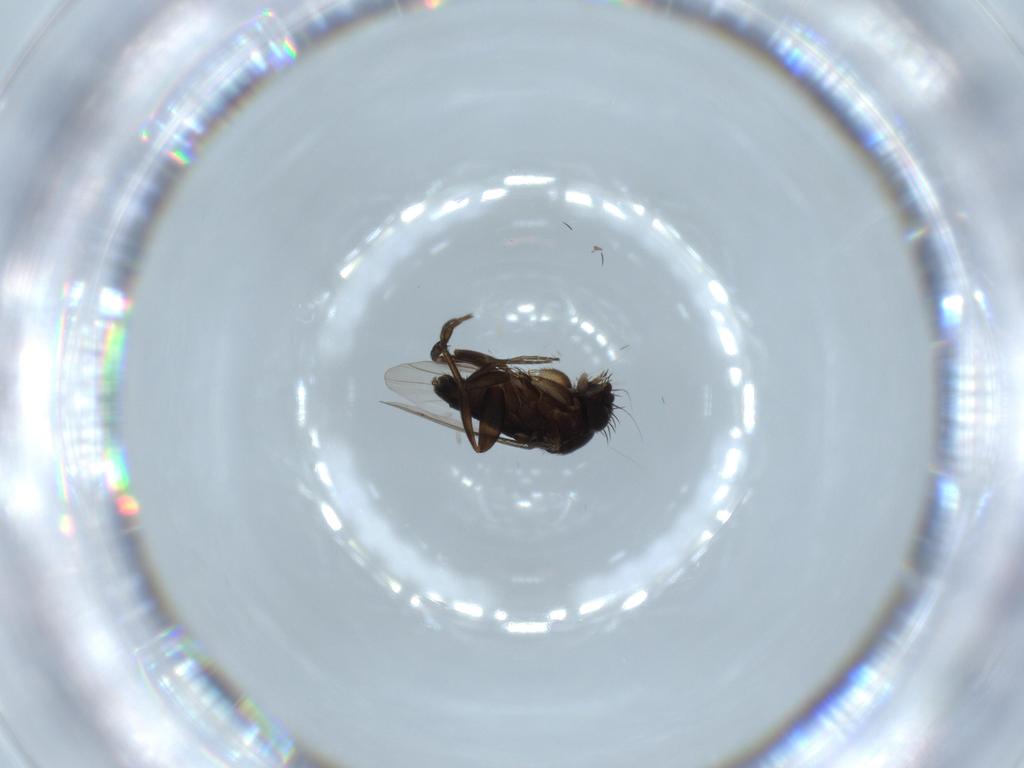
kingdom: Animalia
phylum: Arthropoda
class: Insecta
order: Diptera
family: Phoridae
